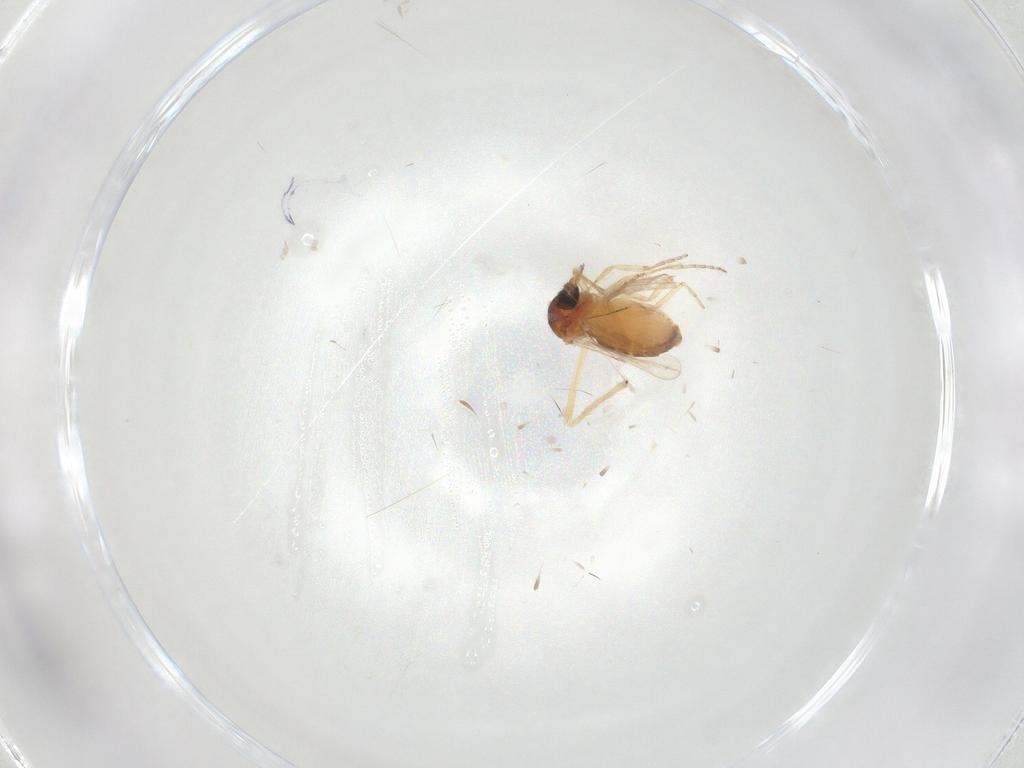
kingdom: Animalia
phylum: Arthropoda
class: Insecta
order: Diptera
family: Ceratopogonidae
